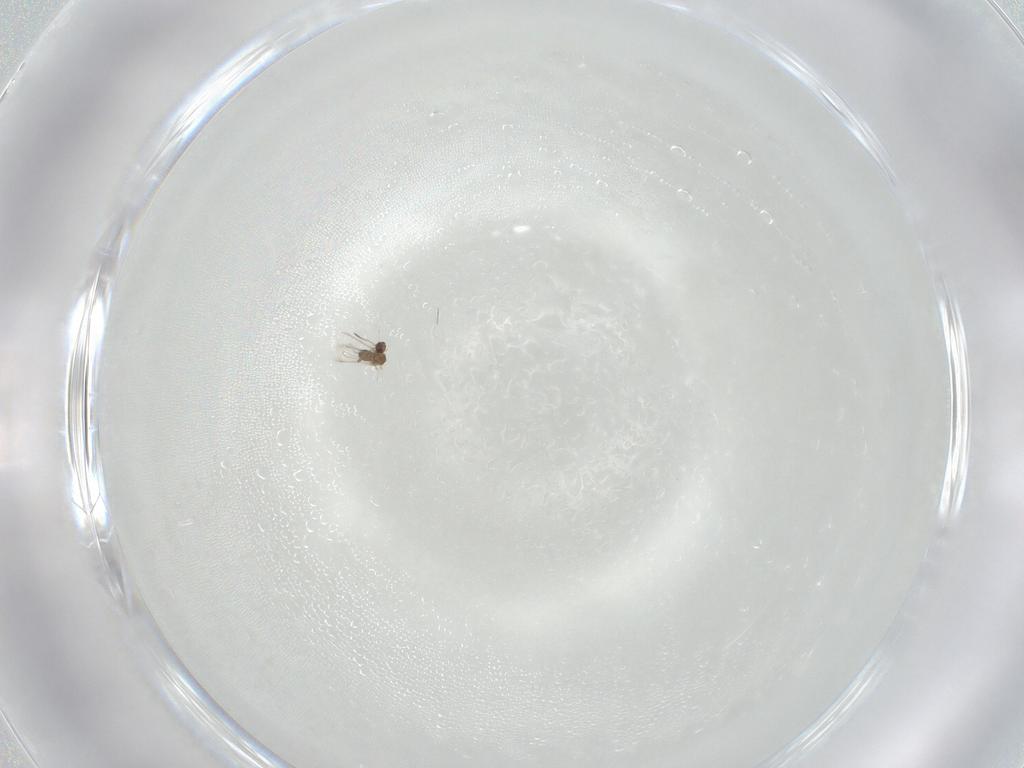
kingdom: Animalia
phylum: Arthropoda
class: Insecta
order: Hymenoptera
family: Mymaridae
